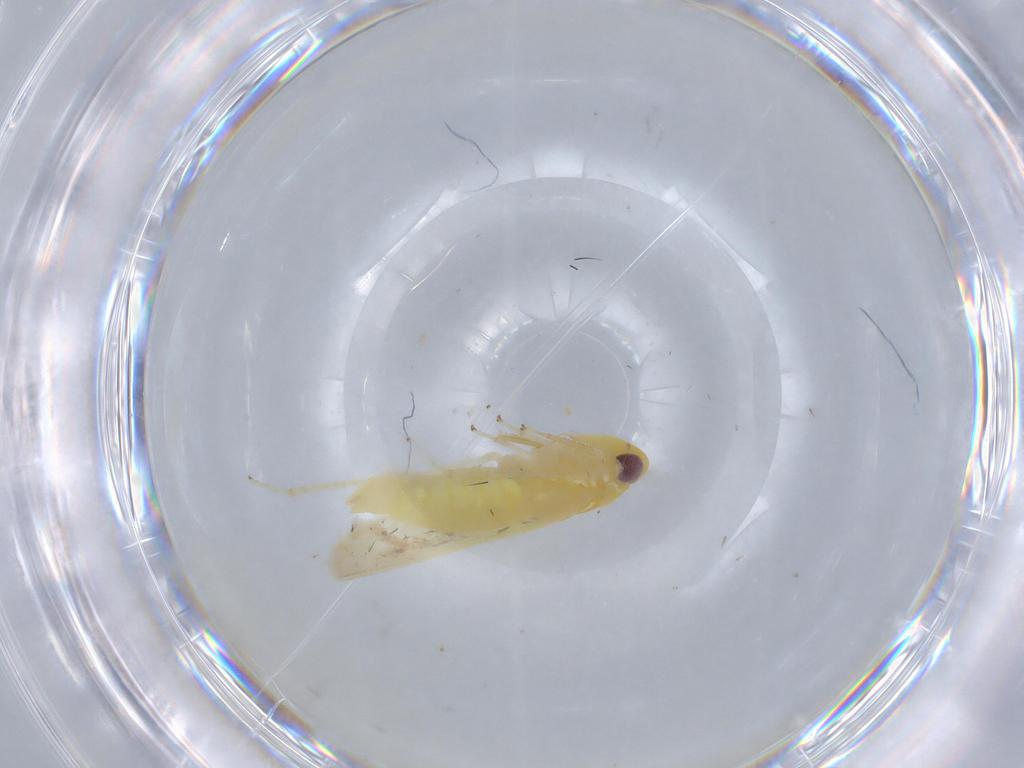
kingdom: Animalia
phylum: Arthropoda
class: Insecta
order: Hemiptera
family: Cicadellidae
